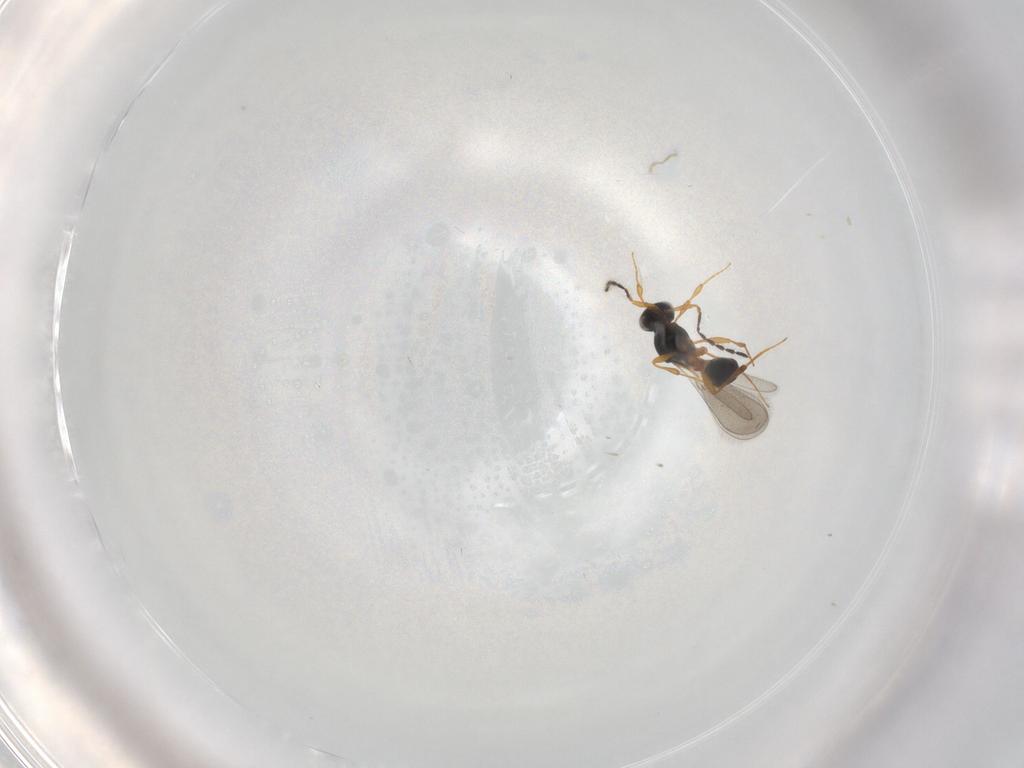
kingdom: Animalia
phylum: Arthropoda
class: Insecta
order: Hymenoptera
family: Platygastridae
